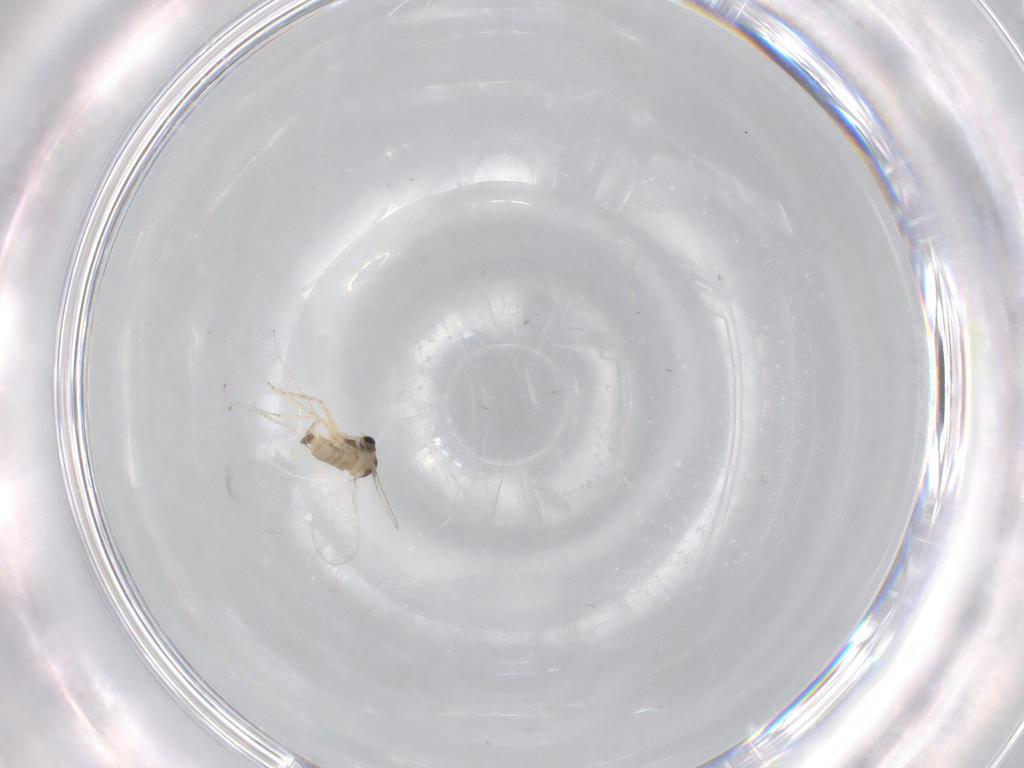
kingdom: Animalia
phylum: Arthropoda
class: Insecta
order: Diptera
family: Cecidomyiidae
